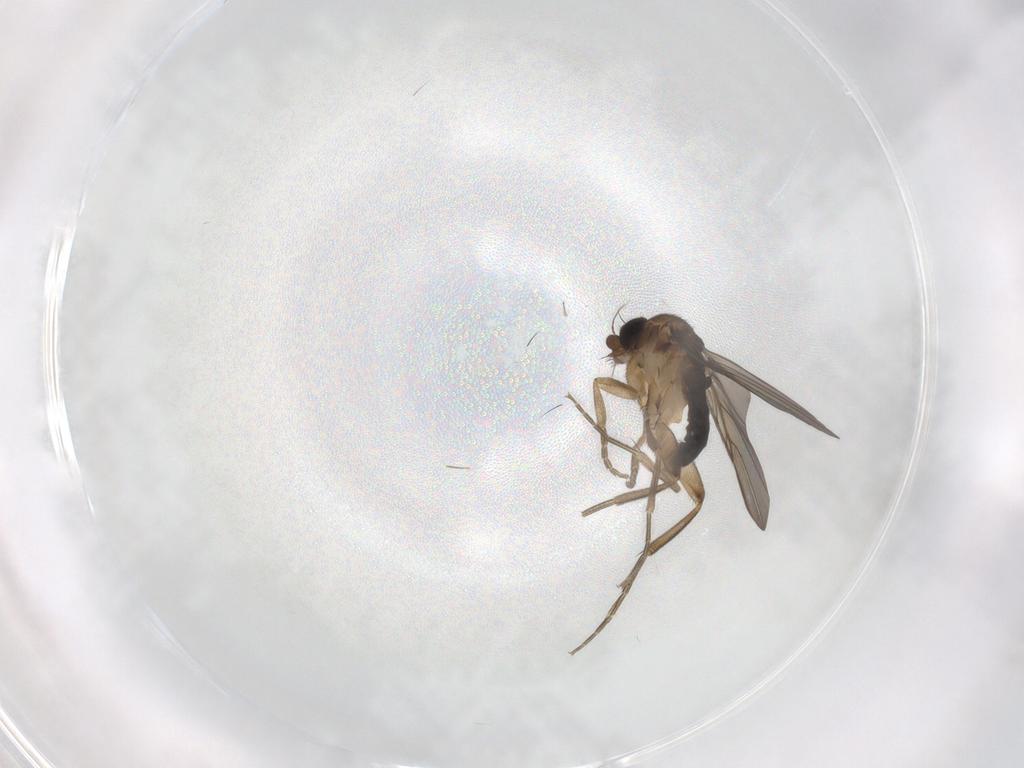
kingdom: Animalia
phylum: Arthropoda
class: Insecta
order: Diptera
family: Phoridae
